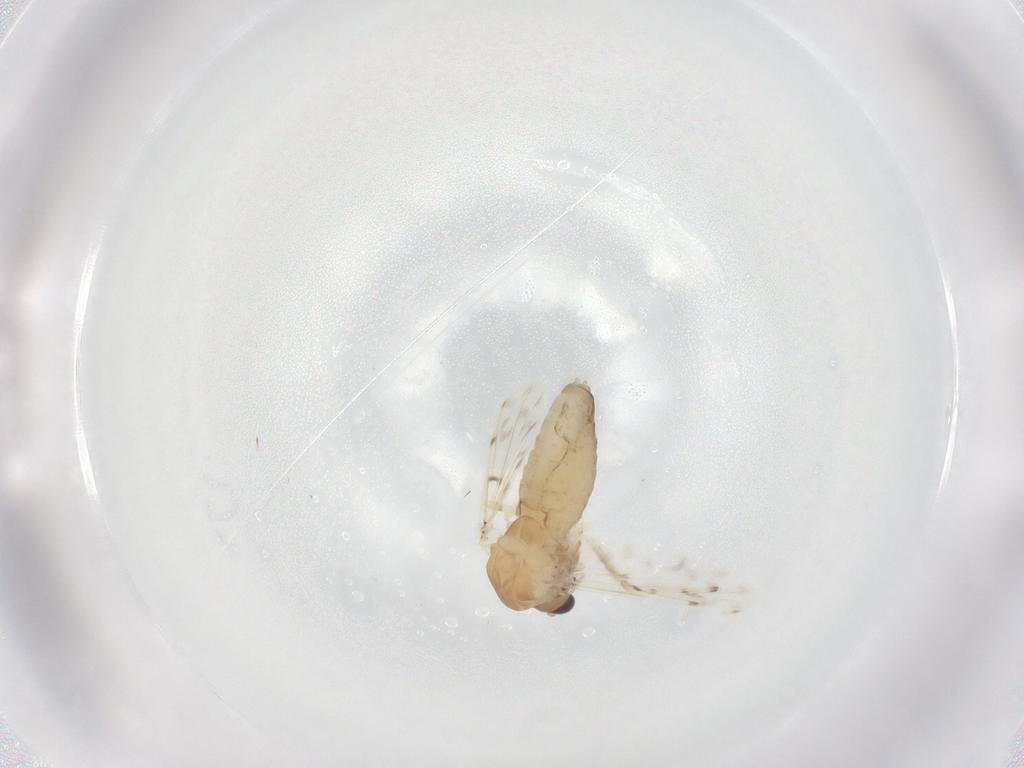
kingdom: Animalia
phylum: Arthropoda
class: Insecta
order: Diptera
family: Chironomidae
